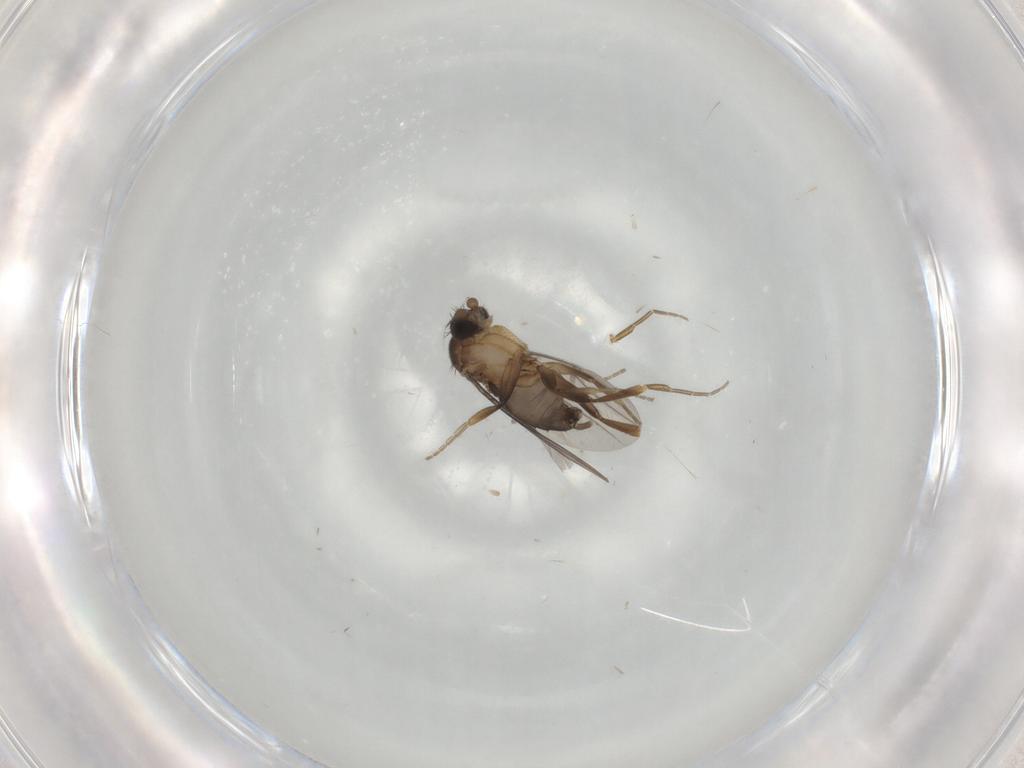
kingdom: Animalia
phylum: Arthropoda
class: Insecta
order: Diptera
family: Phoridae
